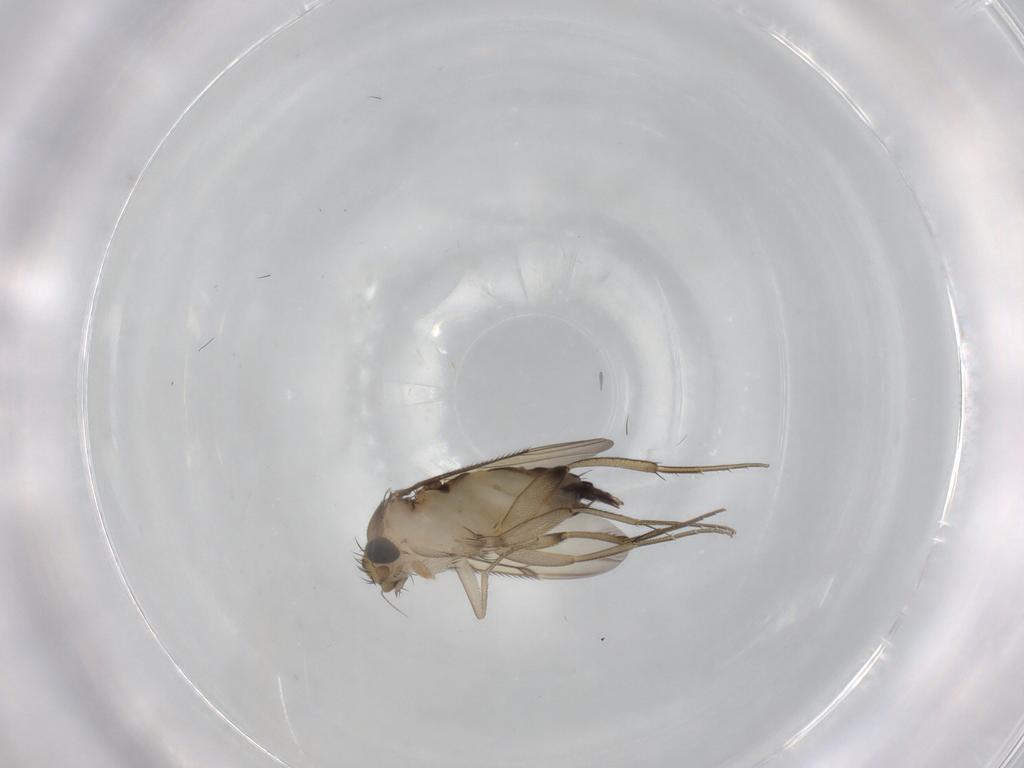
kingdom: Animalia
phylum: Arthropoda
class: Insecta
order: Diptera
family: Phoridae
